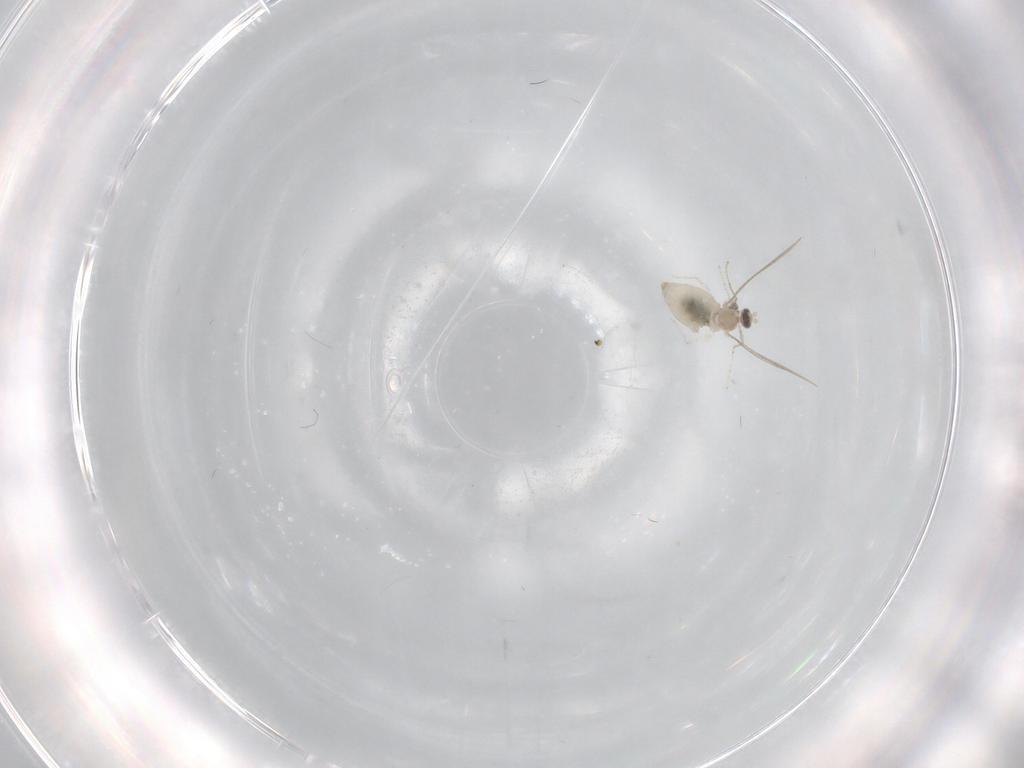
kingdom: Animalia
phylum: Arthropoda
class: Insecta
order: Diptera
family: Cecidomyiidae
